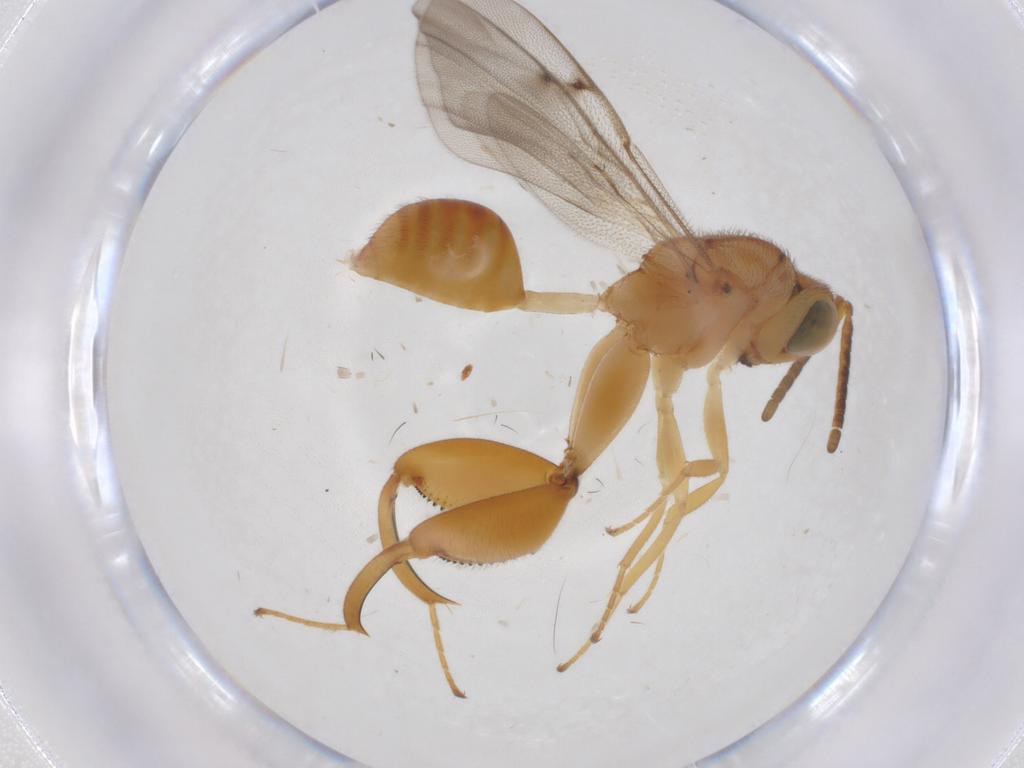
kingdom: Animalia
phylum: Arthropoda
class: Insecta
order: Hymenoptera
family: Chalcididae
